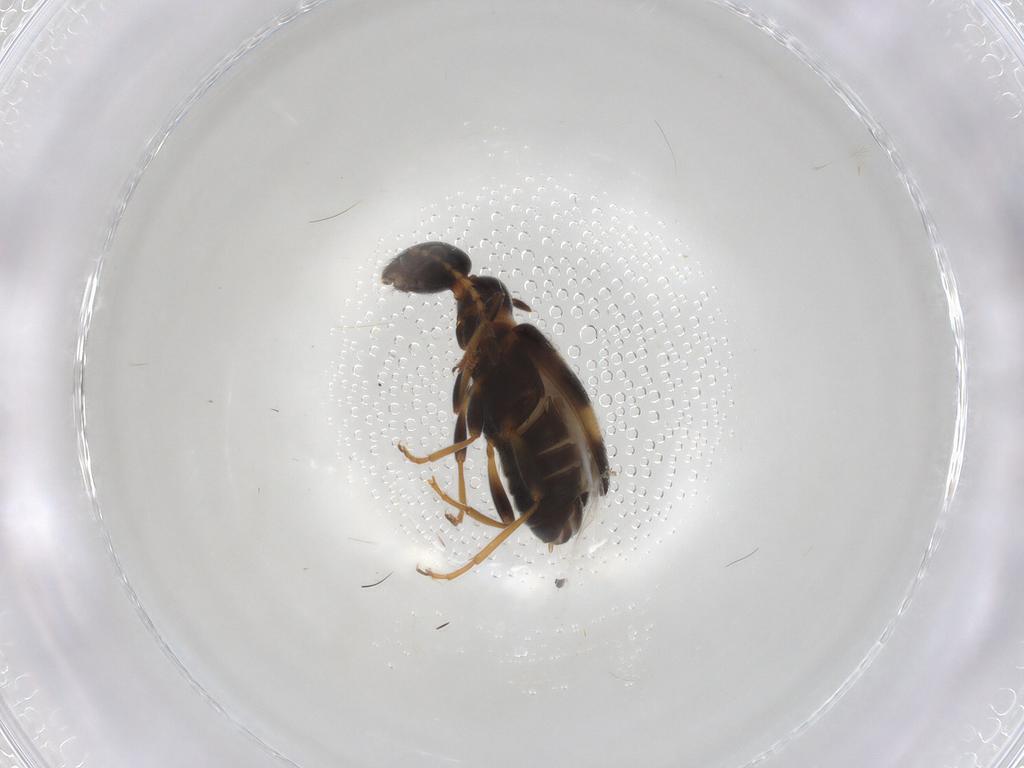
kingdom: Animalia
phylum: Arthropoda
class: Insecta
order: Coleoptera
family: Anthicidae
